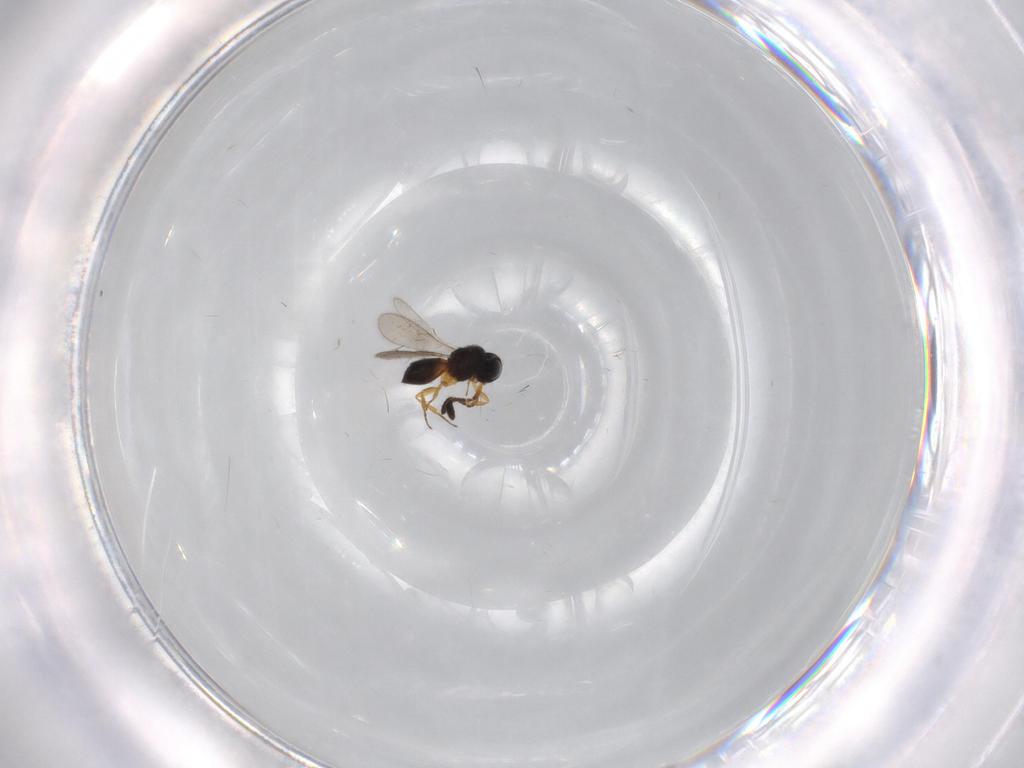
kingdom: Animalia
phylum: Arthropoda
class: Insecta
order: Hymenoptera
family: Scelionidae
